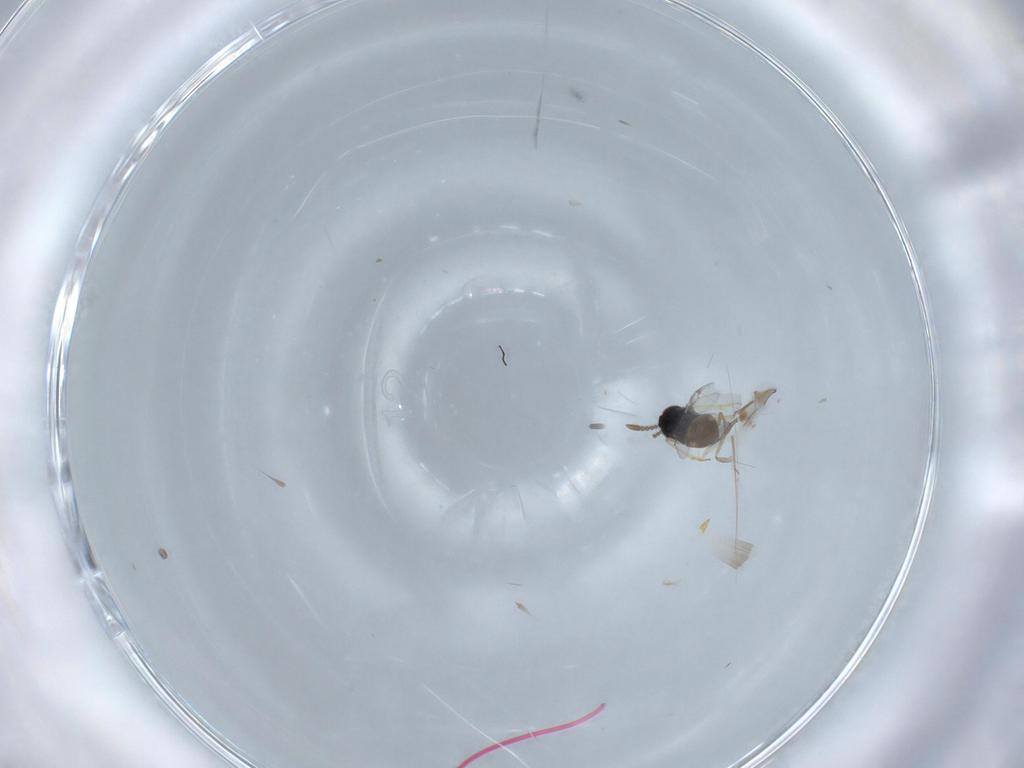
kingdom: Animalia
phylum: Arthropoda
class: Insecta
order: Hymenoptera
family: Formicidae
